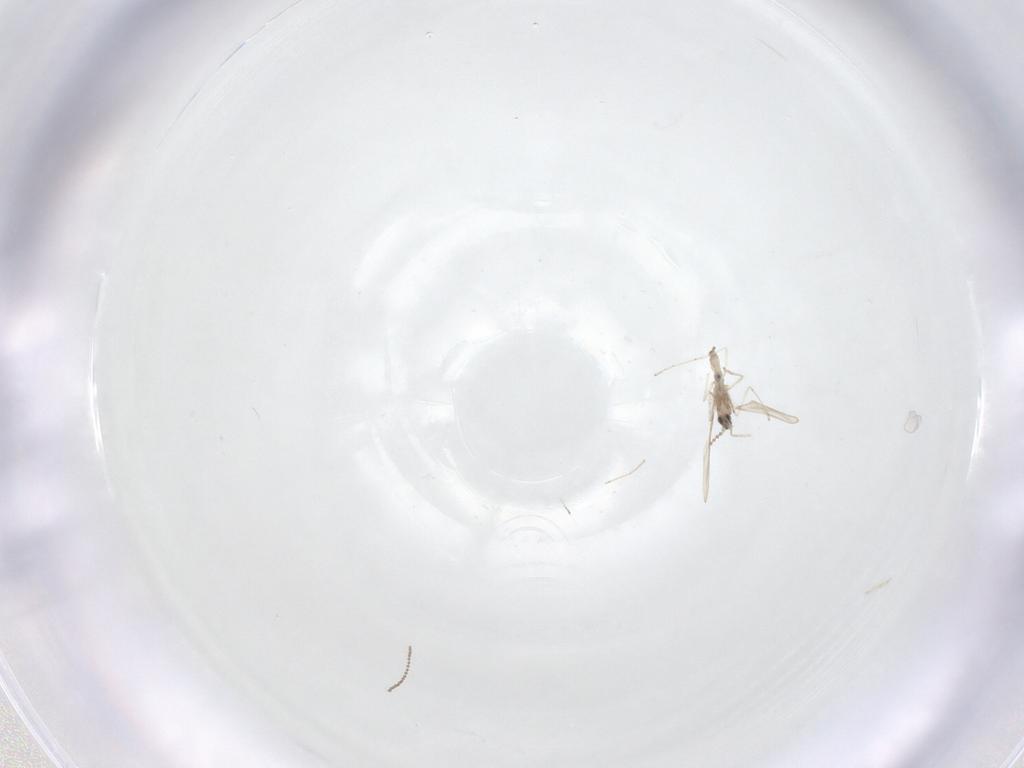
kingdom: Animalia
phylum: Arthropoda
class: Insecta
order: Diptera
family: Cecidomyiidae
